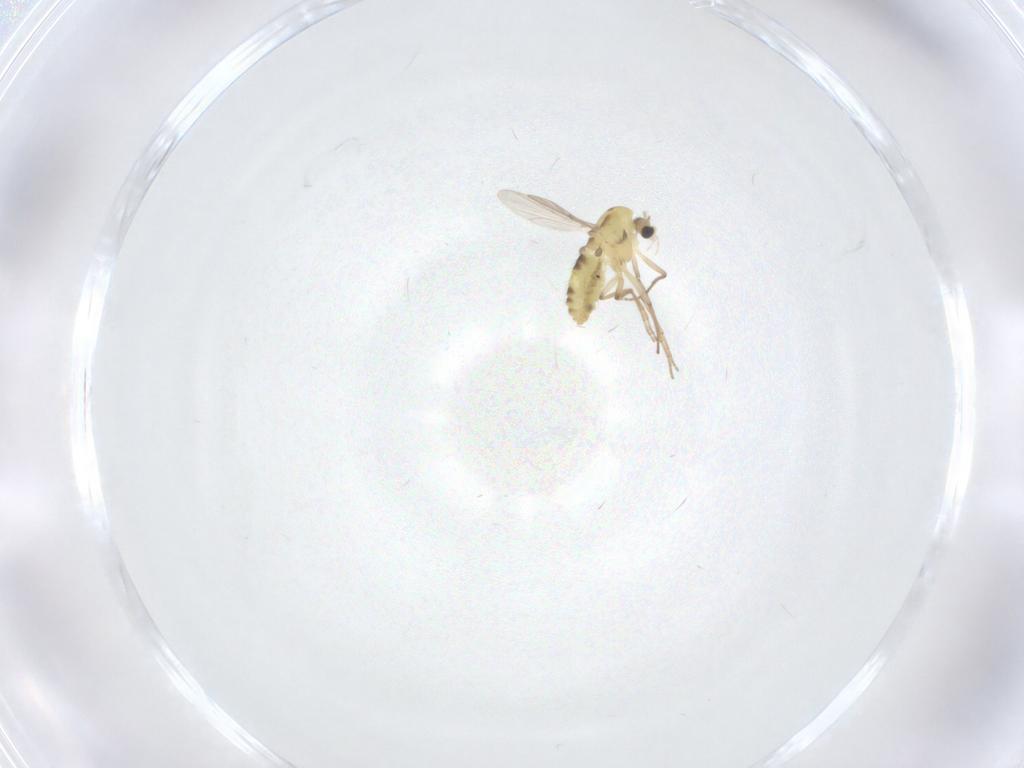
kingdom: Animalia
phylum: Arthropoda
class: Insecta
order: Diptera
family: Chironomidae
